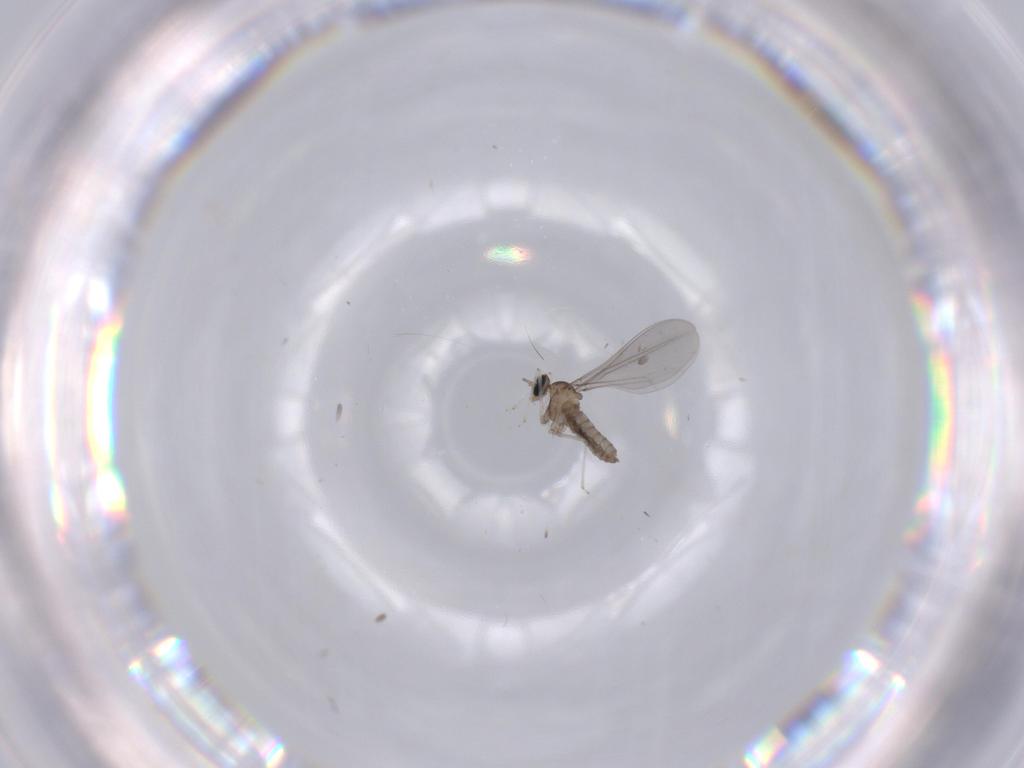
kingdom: Animalia
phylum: Arthropoda
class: Insecta
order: Diptera
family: Cecidomyiidae
